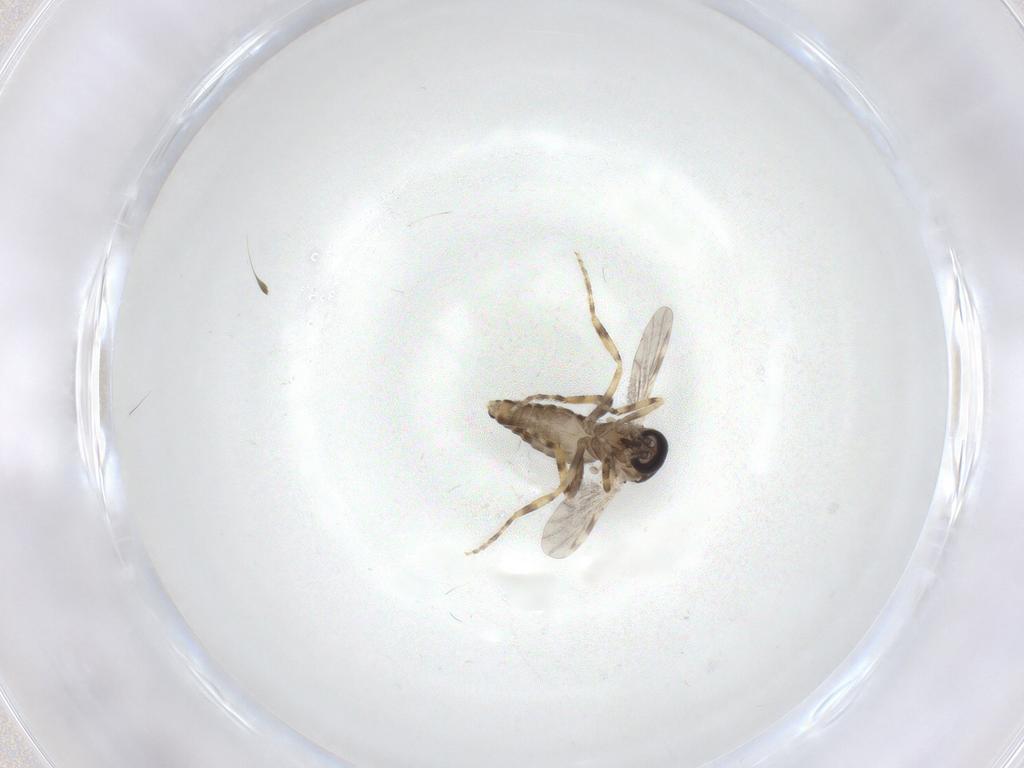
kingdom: Animalia
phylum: Arthropoda
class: Insecta
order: Diptera
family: Ceratopogonidae
